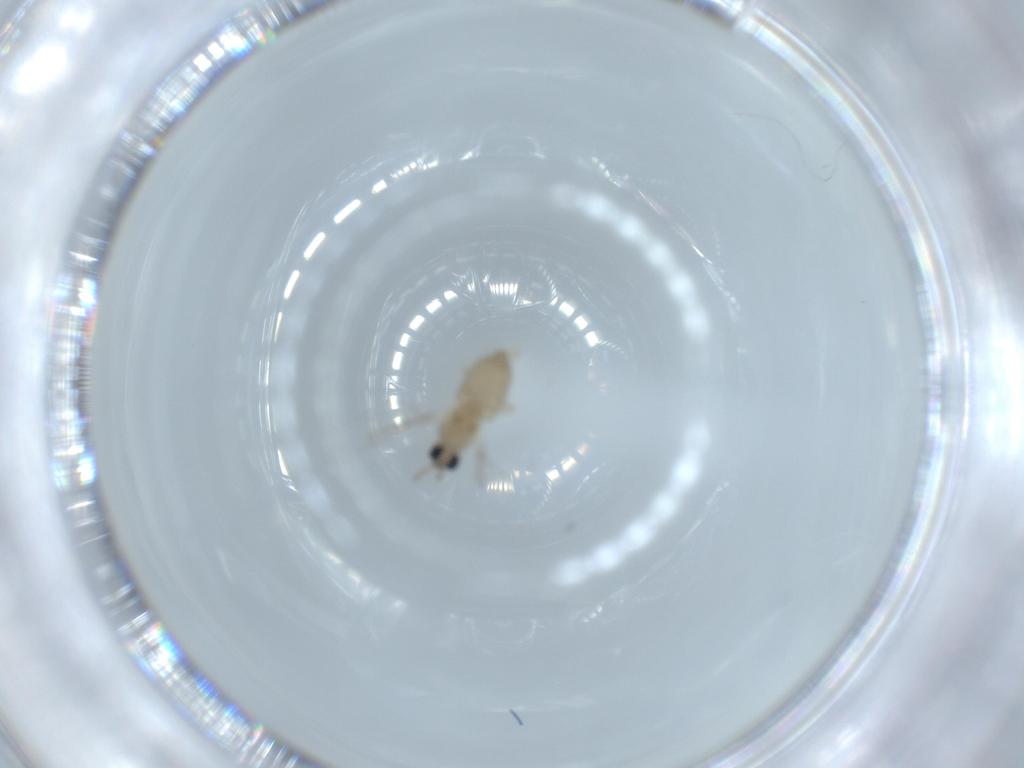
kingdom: Animalia
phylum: Arthropoda
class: Insecta
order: Diptera
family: Cecidomyiidae
